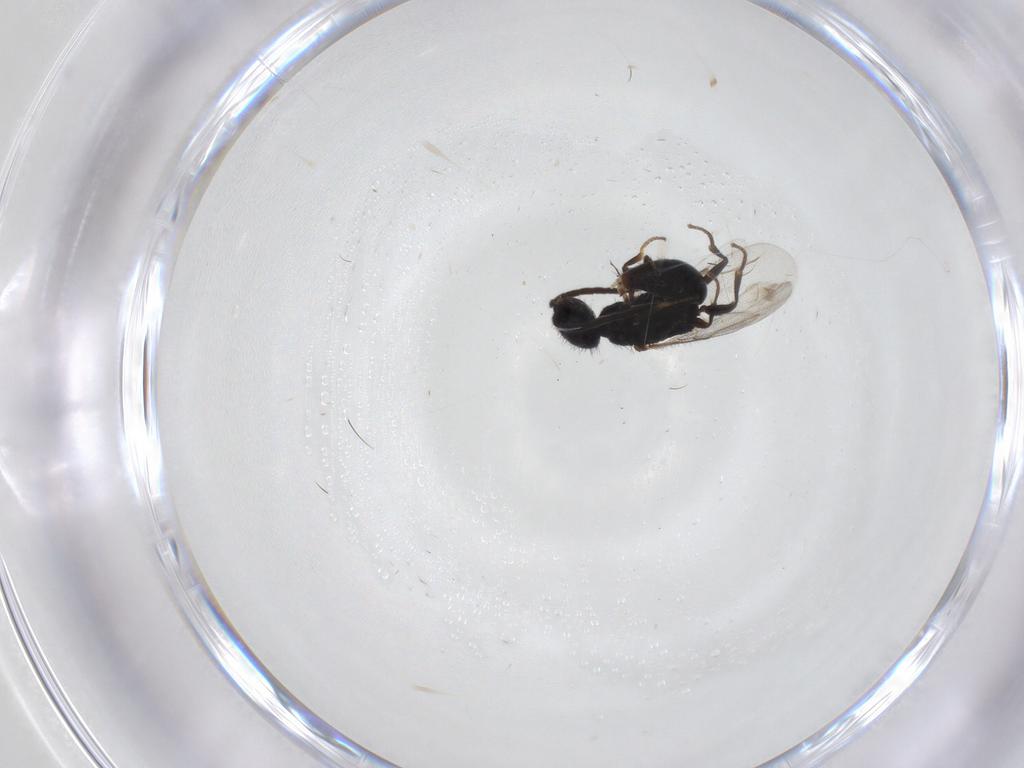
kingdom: Animalia
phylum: Arthropoda
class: Insecta
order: Hymenoptera
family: Bethylidae
